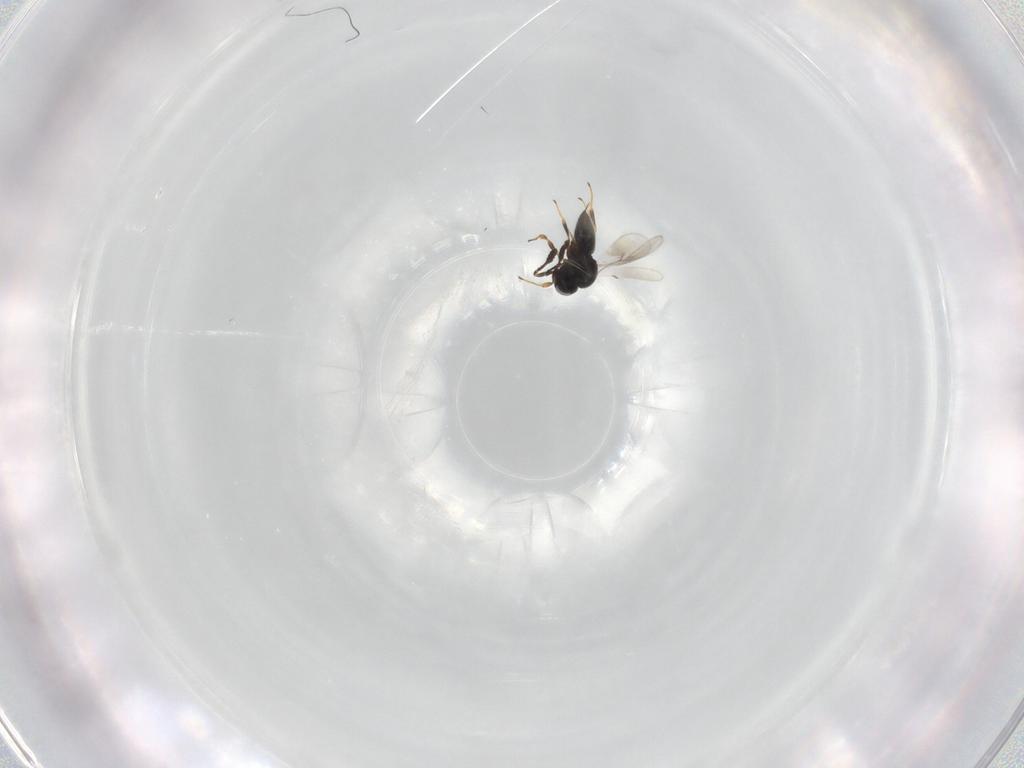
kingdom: Animalia
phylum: Arthropoda
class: Insecta
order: Hymenoptera
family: Scelionidae
